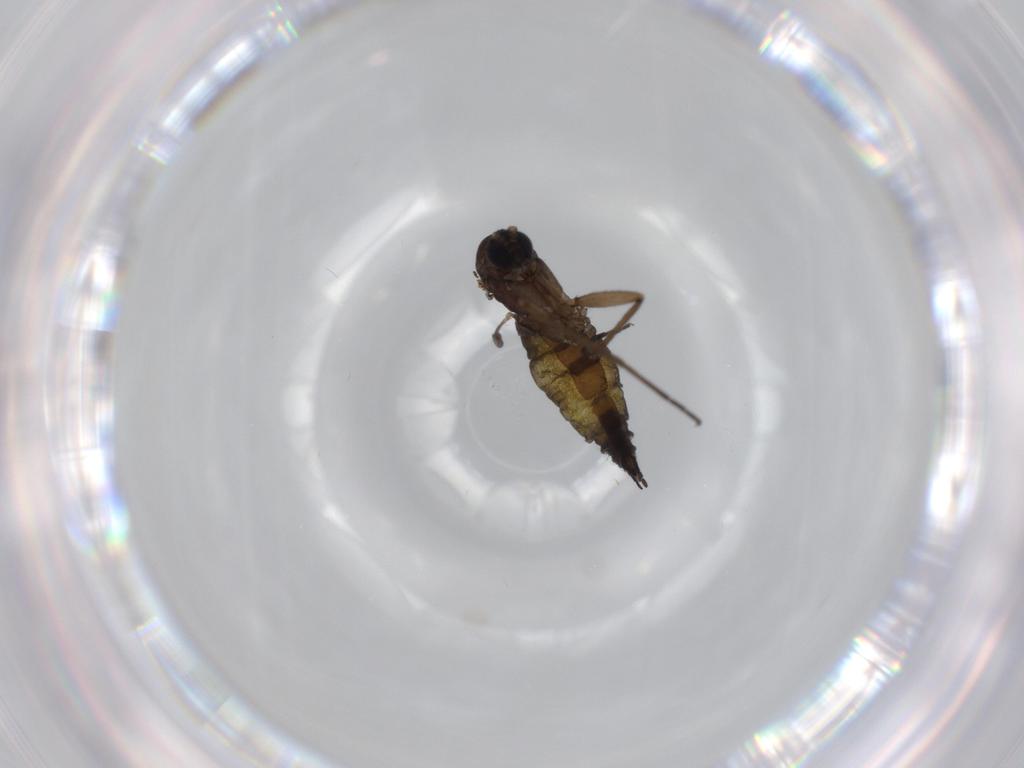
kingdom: Animalia
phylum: Arthropoda
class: Insecta
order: Diptera
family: Sciaridae
